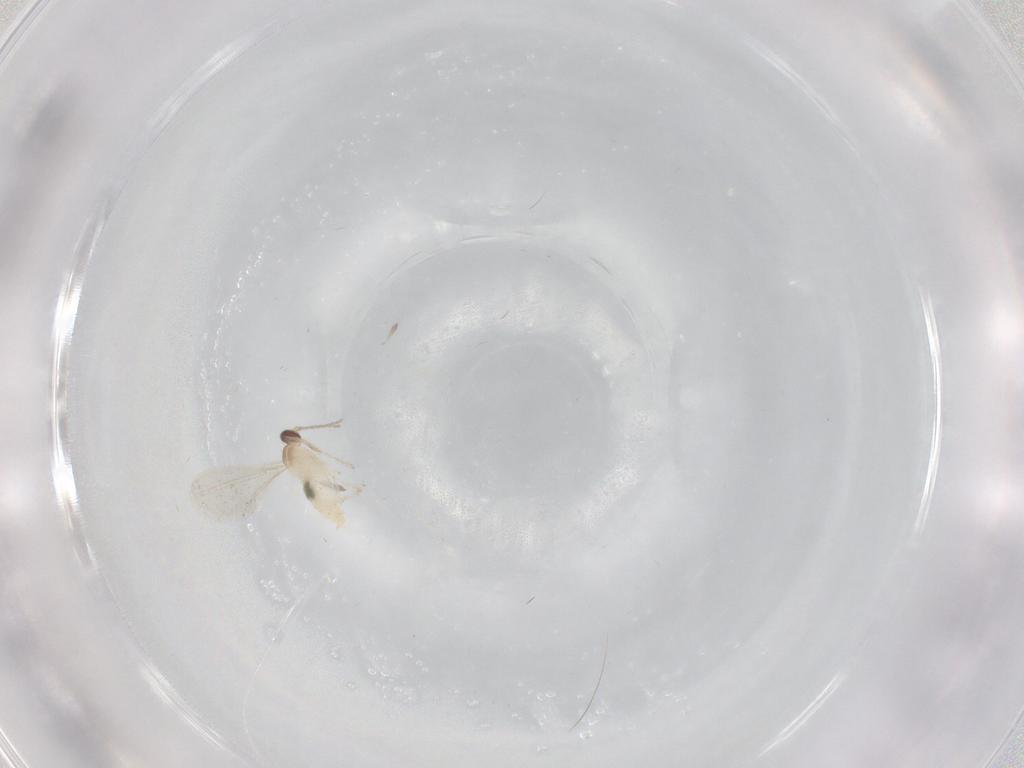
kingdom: Animalia
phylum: Arthropoda
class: Insecta
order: Diptera
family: Cecidomyiidae
